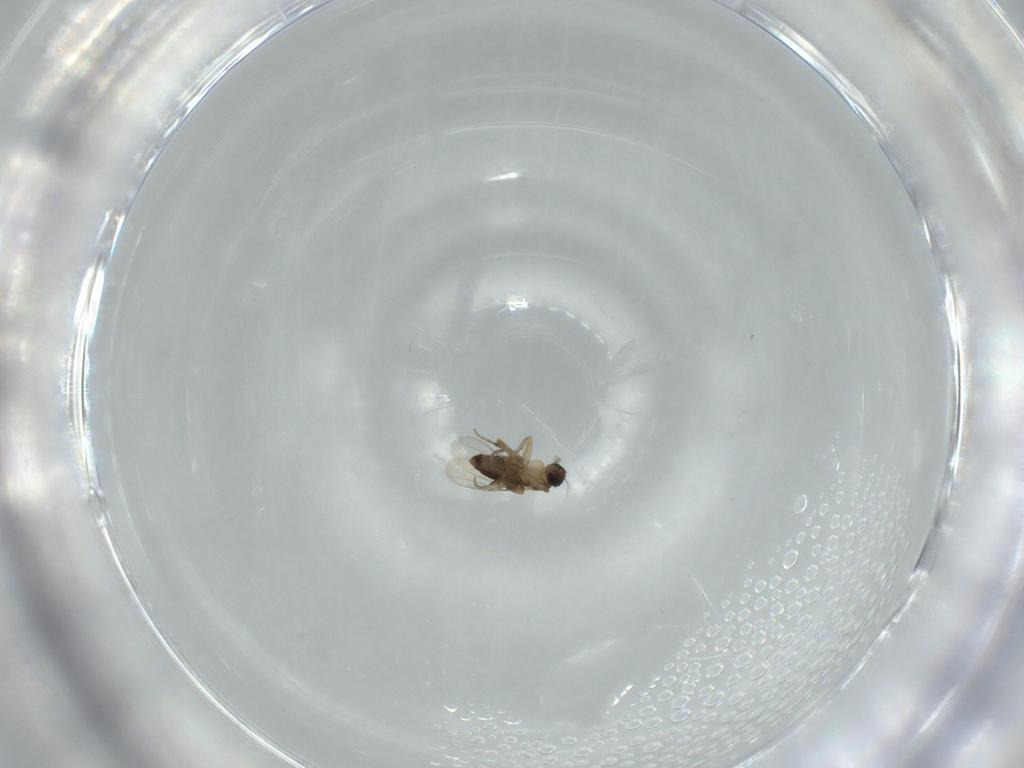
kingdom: Animalia
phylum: Arthropoda
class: Insecta
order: Diptera
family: Phoridae
